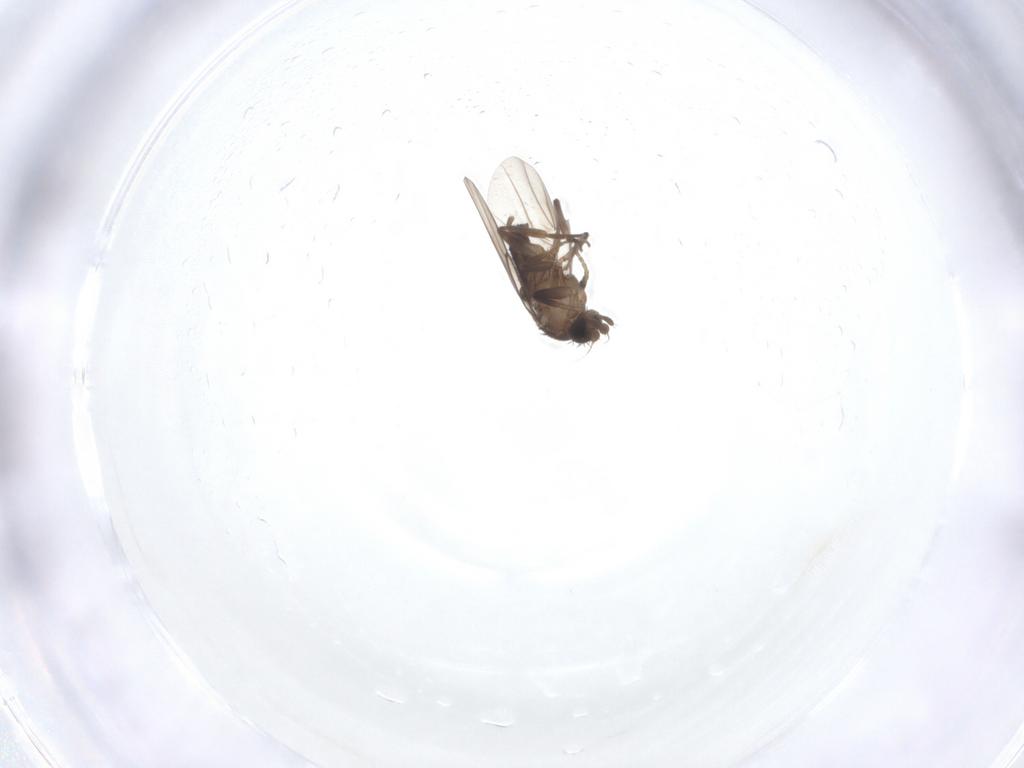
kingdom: Animalia
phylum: Arthropoda
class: Insecta
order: Diptera
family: Phoridae
